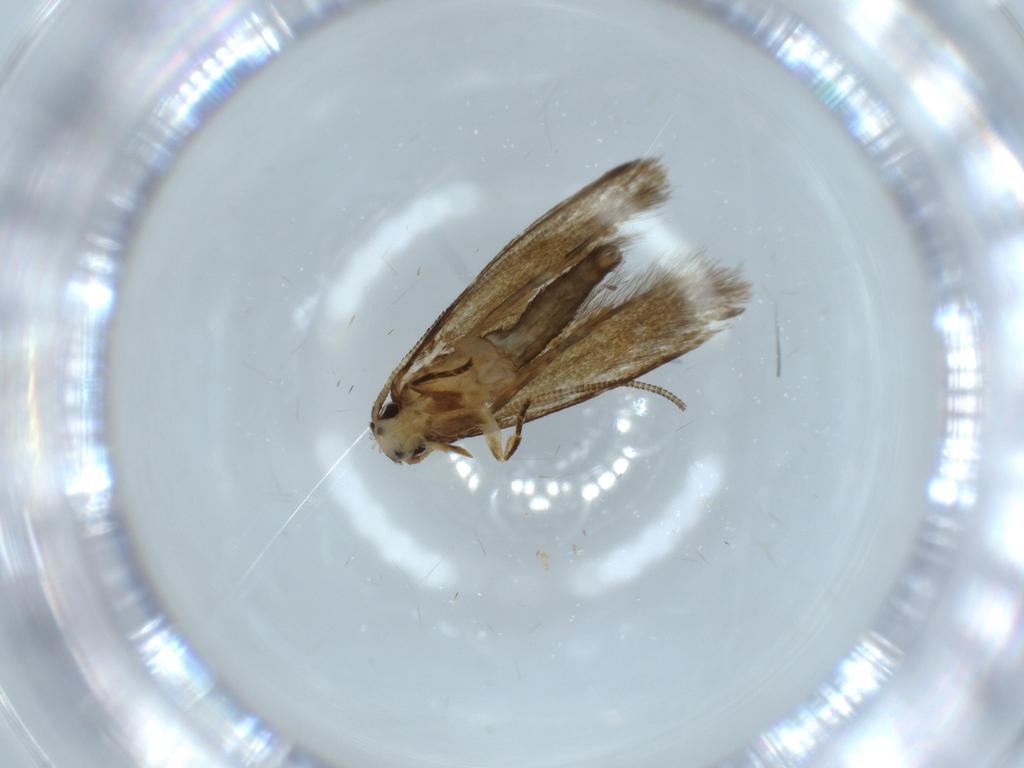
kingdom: Animalia
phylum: Arthropoda
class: Insecta
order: Lepidoptera
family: Tineidae
